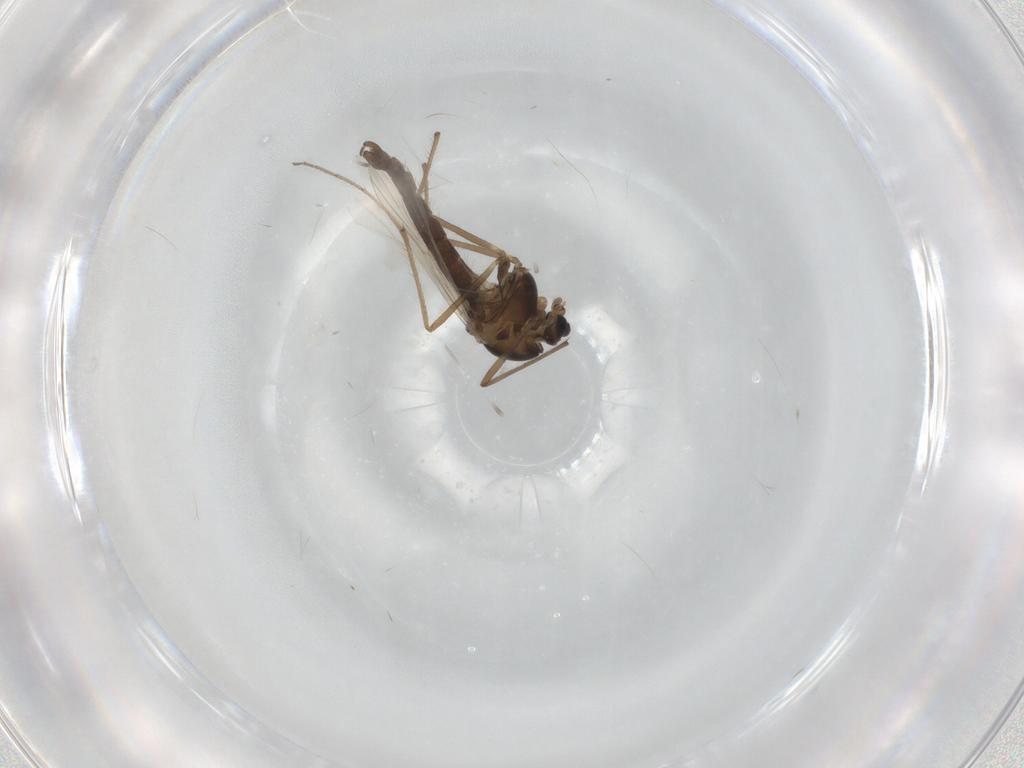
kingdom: Animalia
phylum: Arthropoda
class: Insecta
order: Diptera
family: Chironomidae
